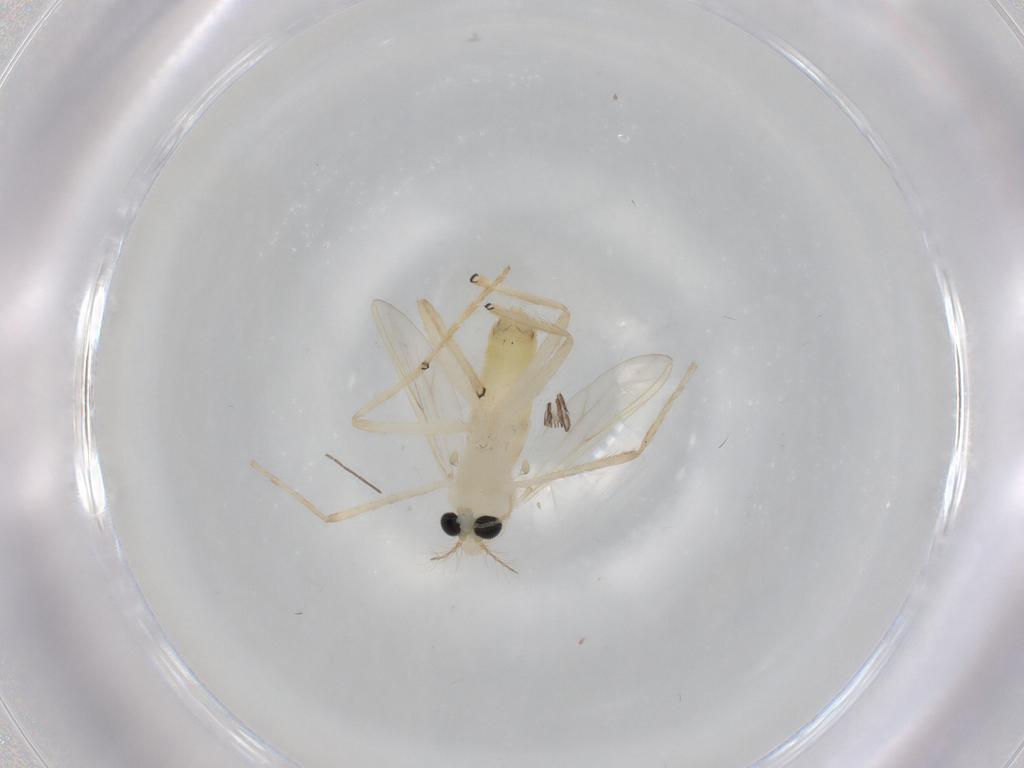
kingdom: Animalia
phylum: Arthropoda
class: Insecta
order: Diptera
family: Chironomidae
